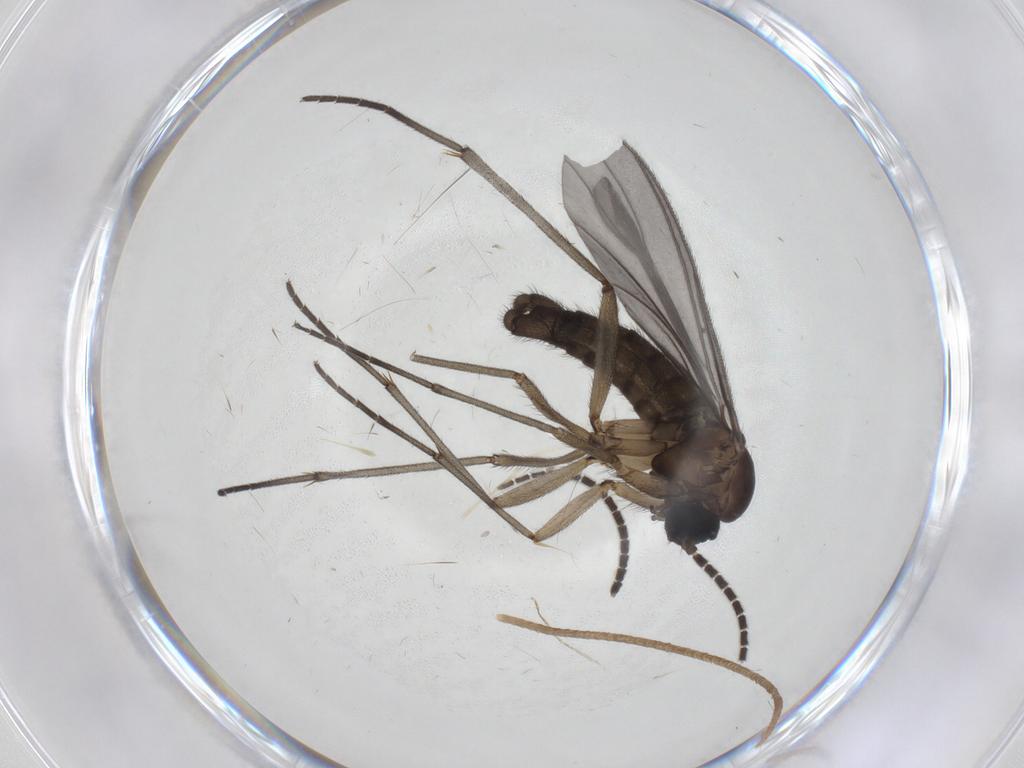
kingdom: Animalia
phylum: Arthropoda
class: Insecta
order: Diptera
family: Sciaridae
